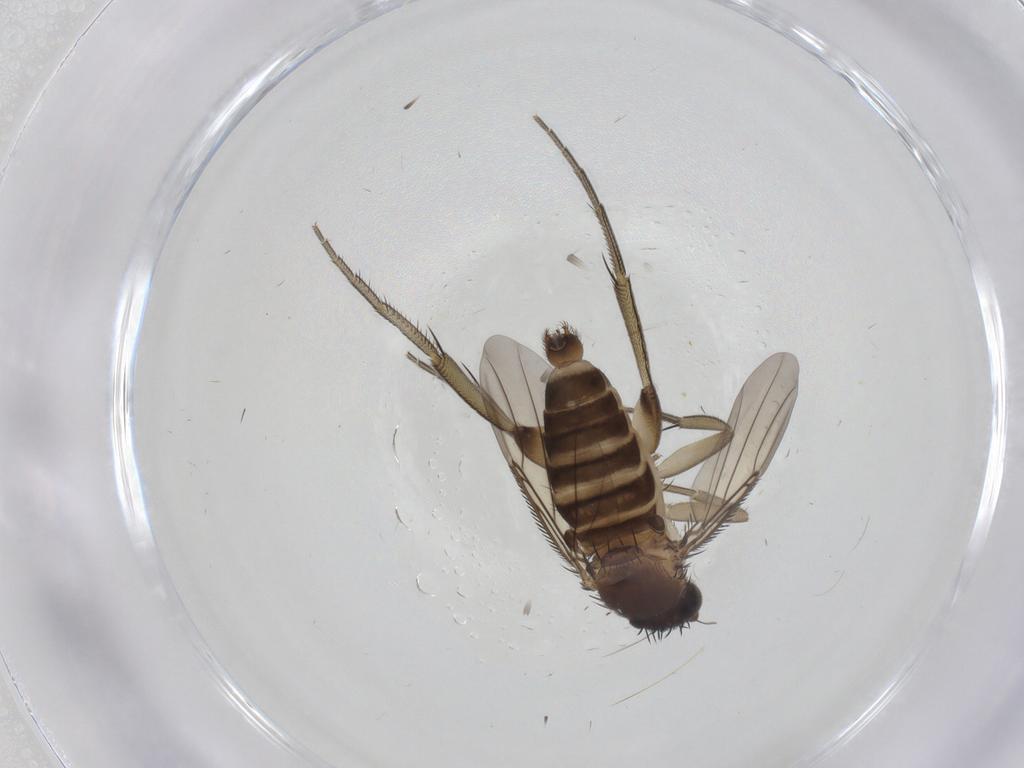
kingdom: Animalia
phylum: Arthropoda
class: Insecta
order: Diptera
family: Phoridae
